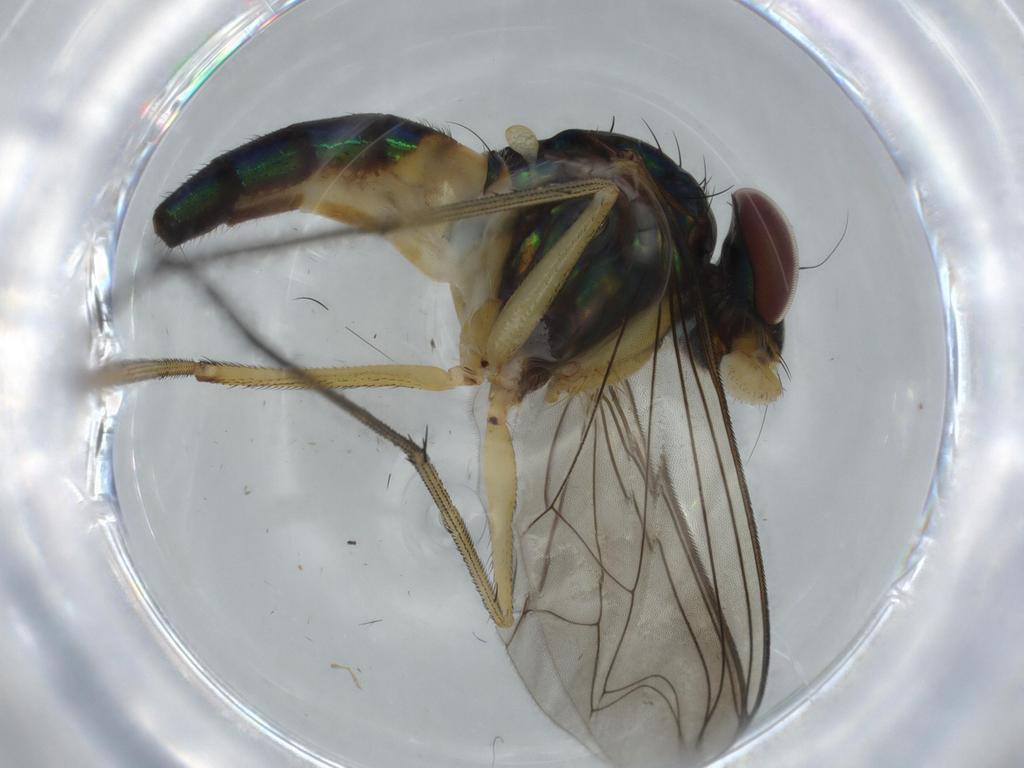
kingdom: Animalia
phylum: Arthropoda
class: Insecta
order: Diptera
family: Dolichopodidae
